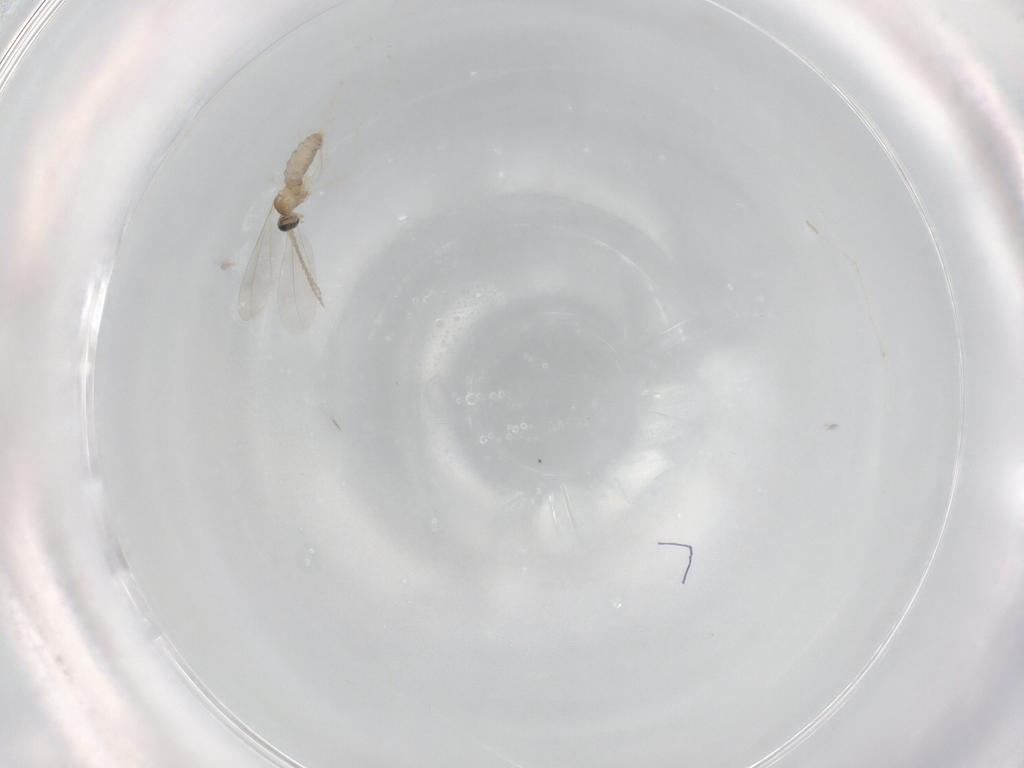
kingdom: Animalia
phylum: Arthropoda
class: Insecta
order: Diptera
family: Cecidomyiidae
